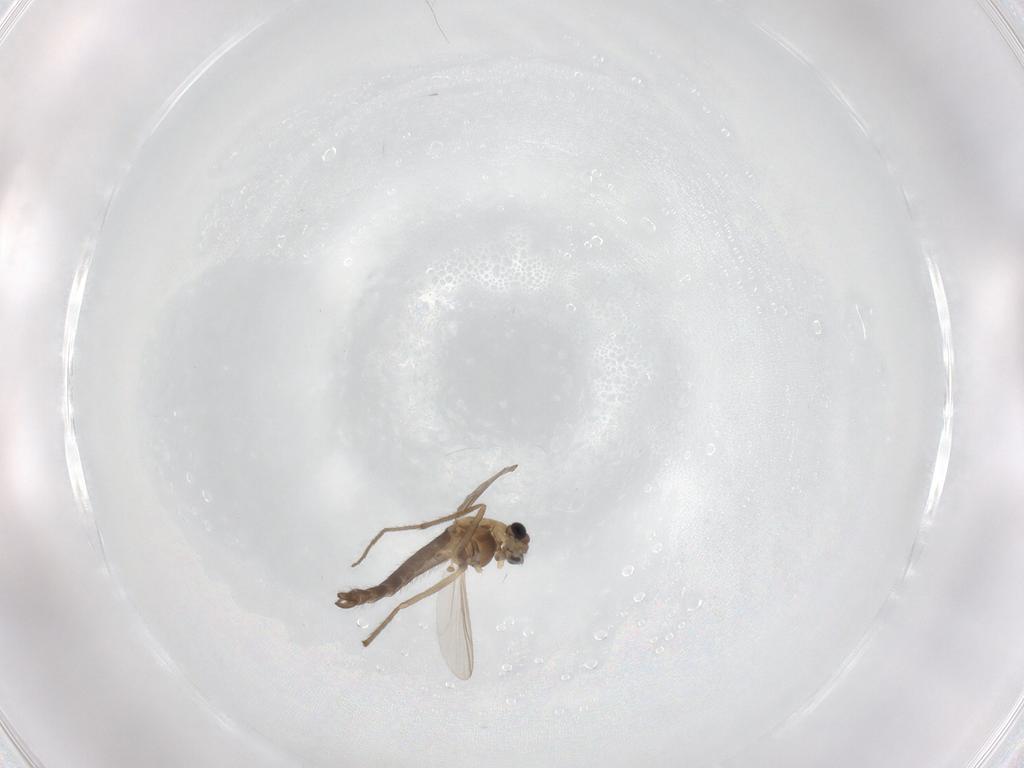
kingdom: Animalia
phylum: Arthropoda
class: Insecta
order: Diptera
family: Chironomidae
